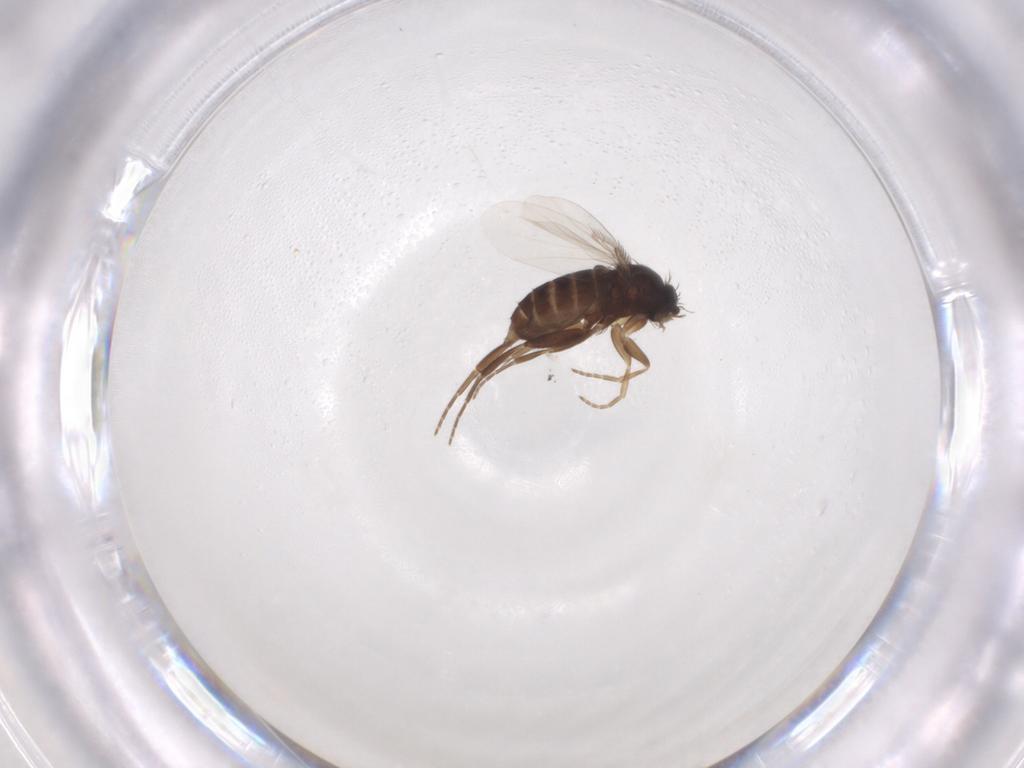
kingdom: Animalia
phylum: Arthropoda
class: Insecta
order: Diptera
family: Phoridae
